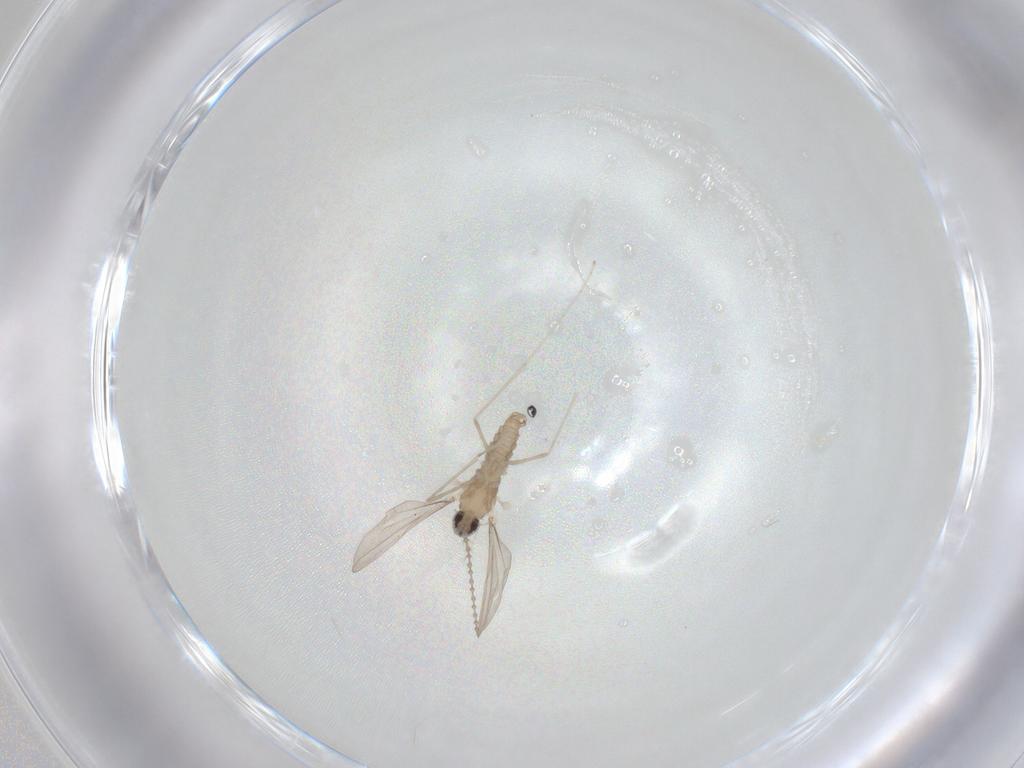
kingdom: Animalia
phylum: Arthropoda
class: Insecta
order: Diptera
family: Cecidomyiidae
